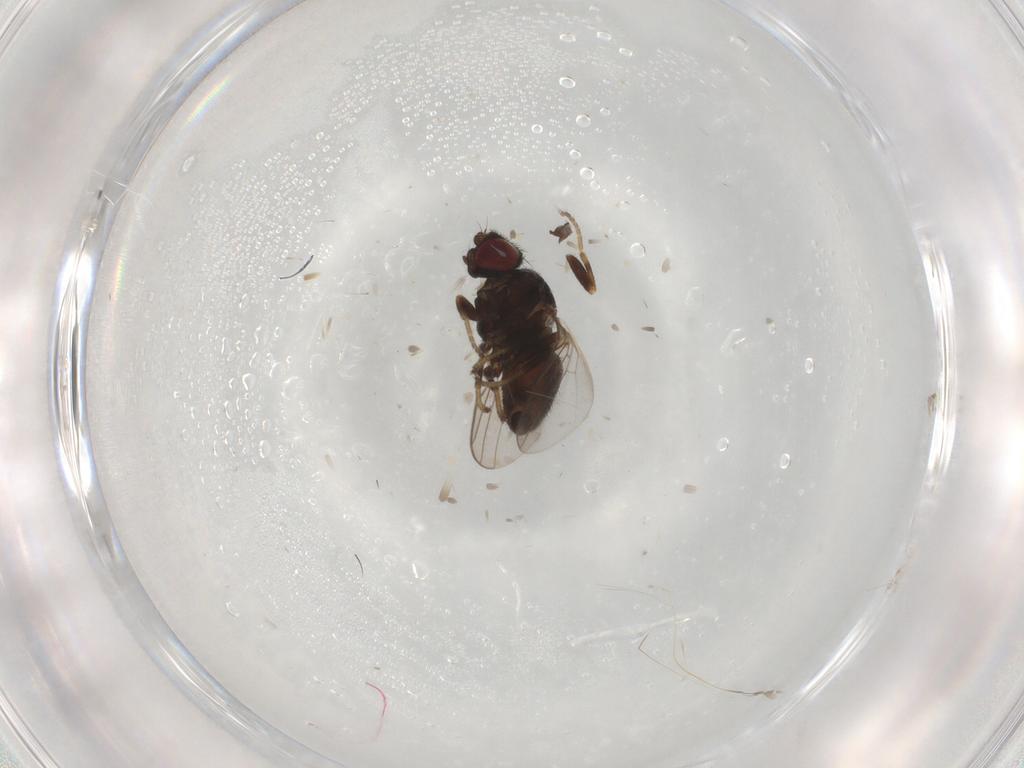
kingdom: Animalia
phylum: Arthropoda
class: Insecta
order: Diptera
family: Chloropidae
